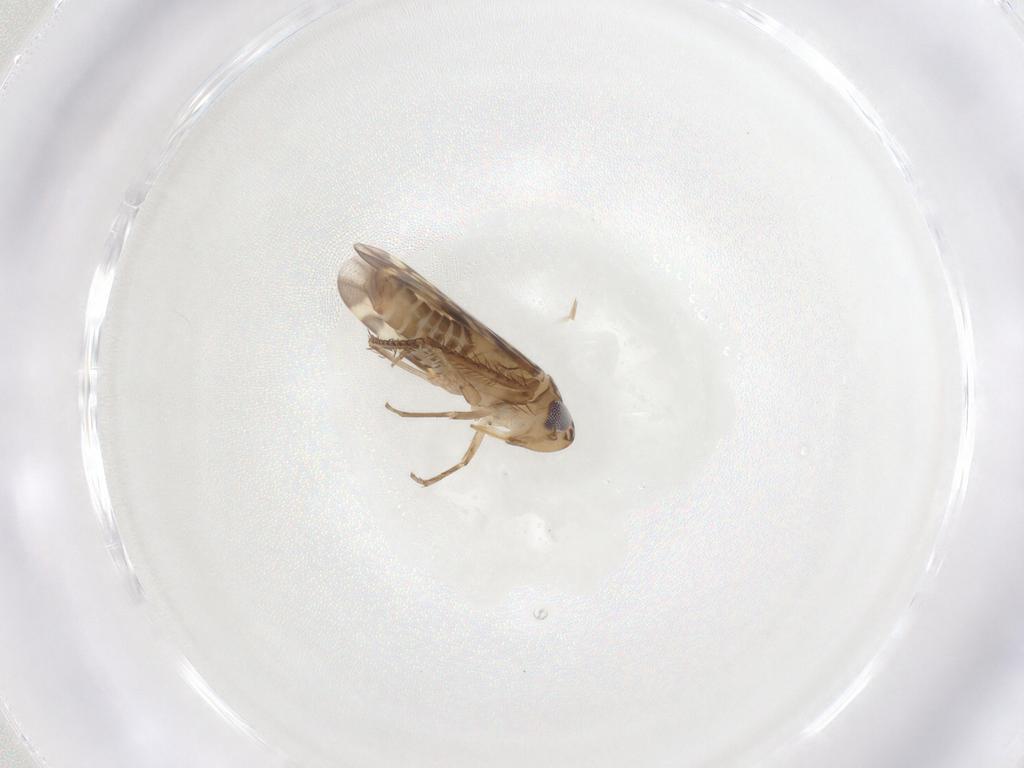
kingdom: Animalia
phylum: Arthropoda
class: Insecta
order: Hemiptera
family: Cicadellidae
